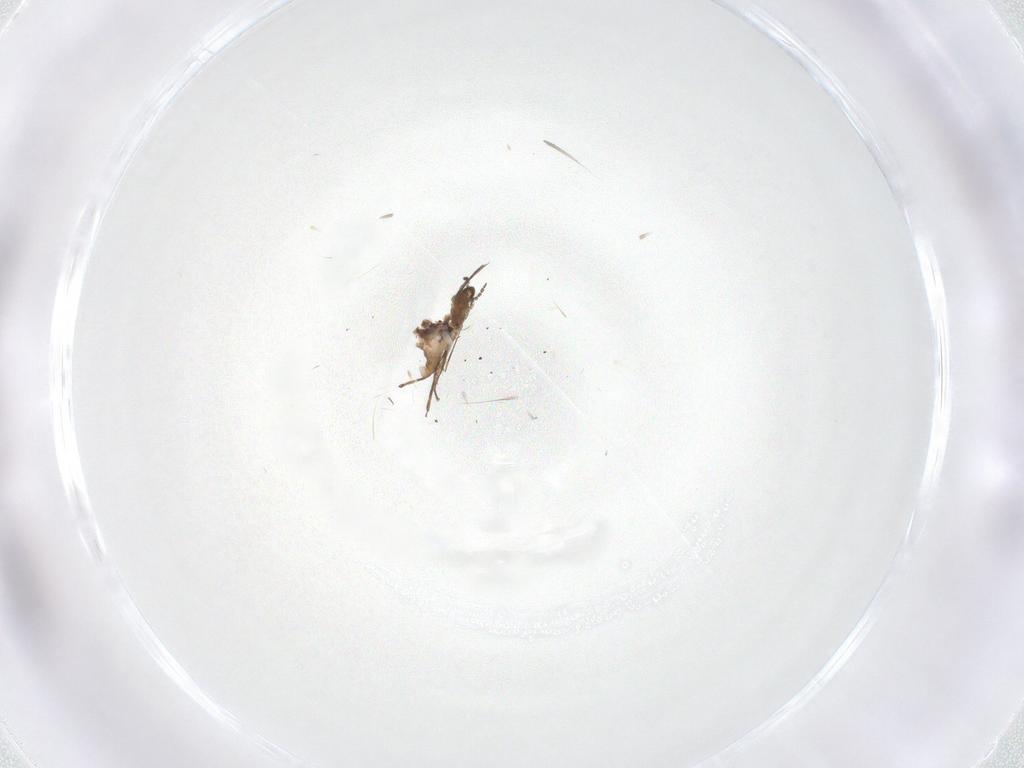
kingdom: Animalia
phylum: Arthropoda
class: Insecta
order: Diptera
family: Cecidomyiidae
